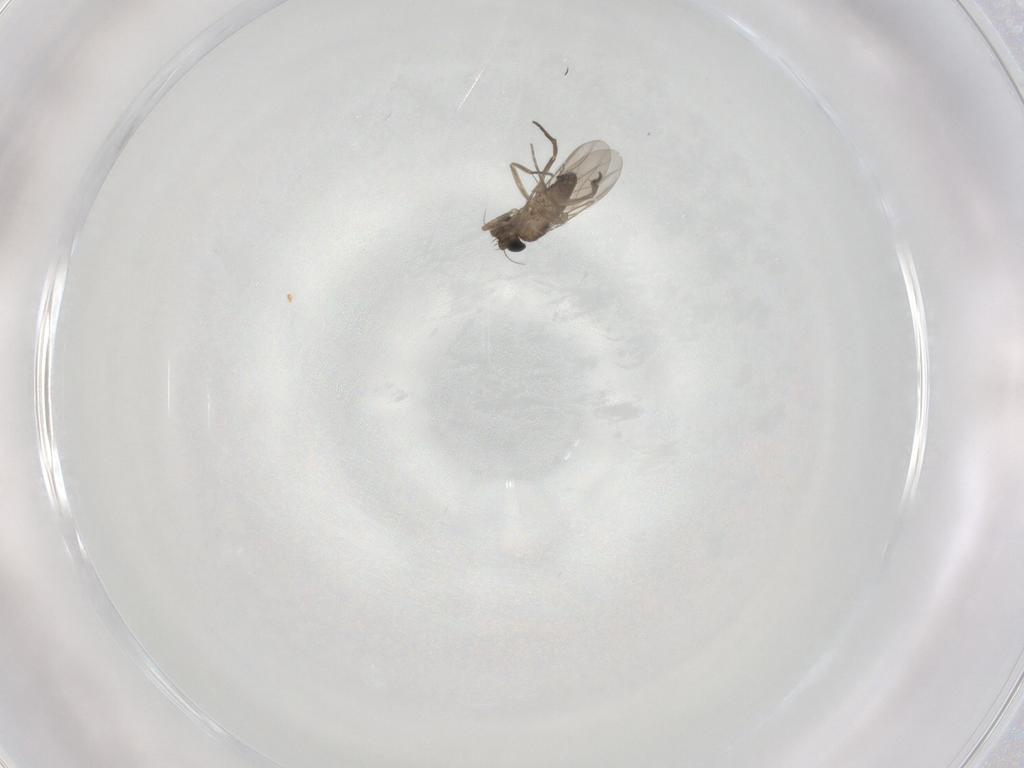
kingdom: Animalia
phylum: Arthropoda
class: Insecta
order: Diptera
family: Phoridae
